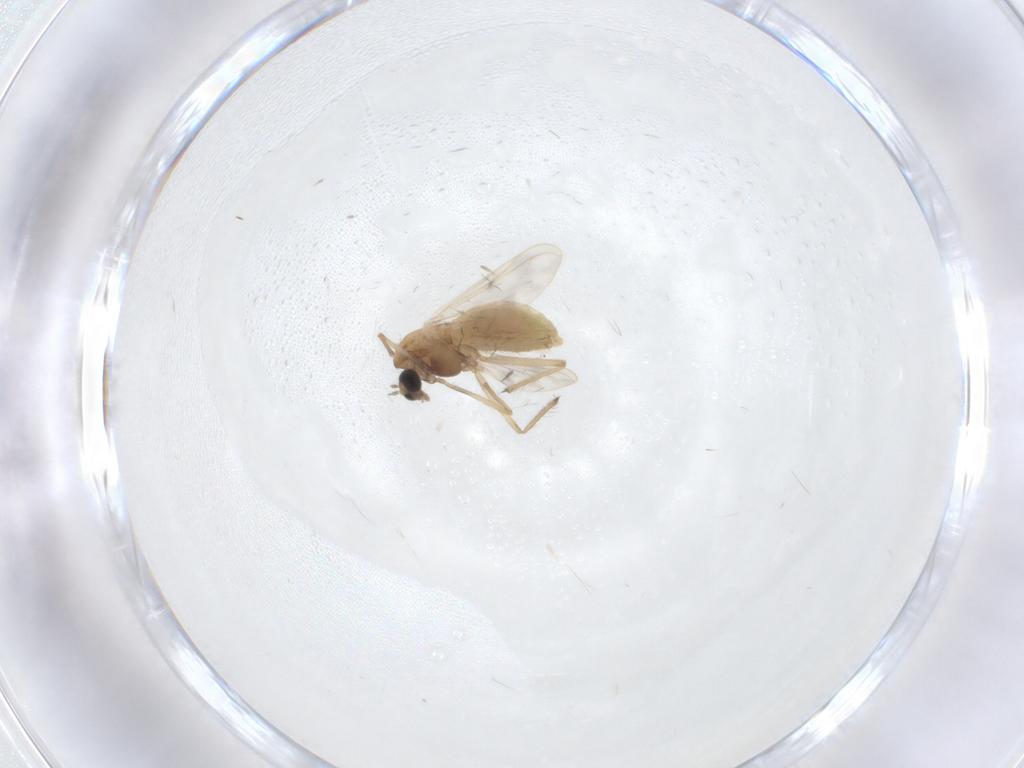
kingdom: Animalia
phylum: Arthropoda
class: Insecta
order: Diptera
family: Chironomidae
